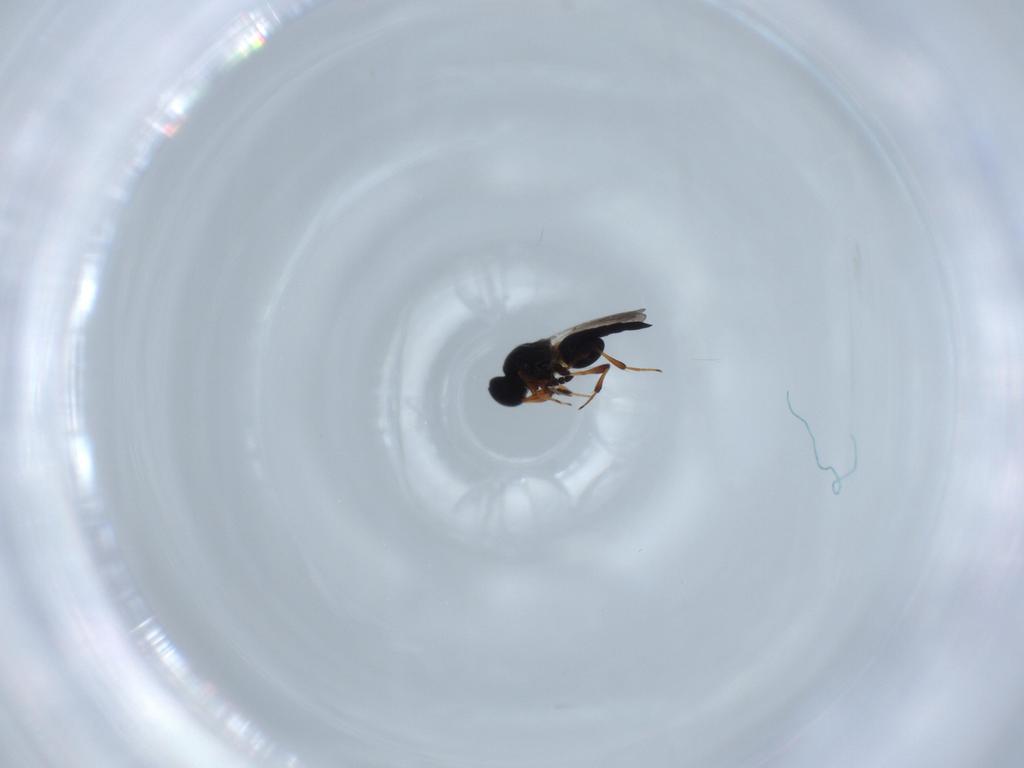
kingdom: Animalia
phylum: Arthropoda
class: Insecta
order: Hymenoptera
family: Platygastridae
